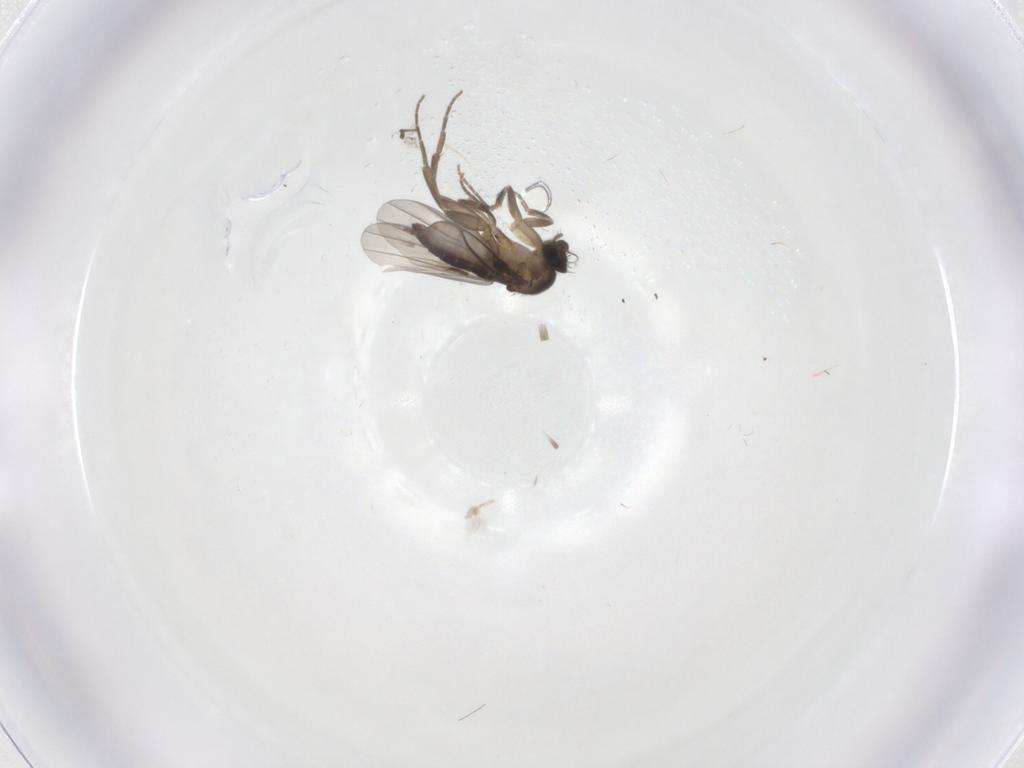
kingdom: Animalia
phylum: Arthropoda
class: Insecta
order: Diptera
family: Sciaridae
